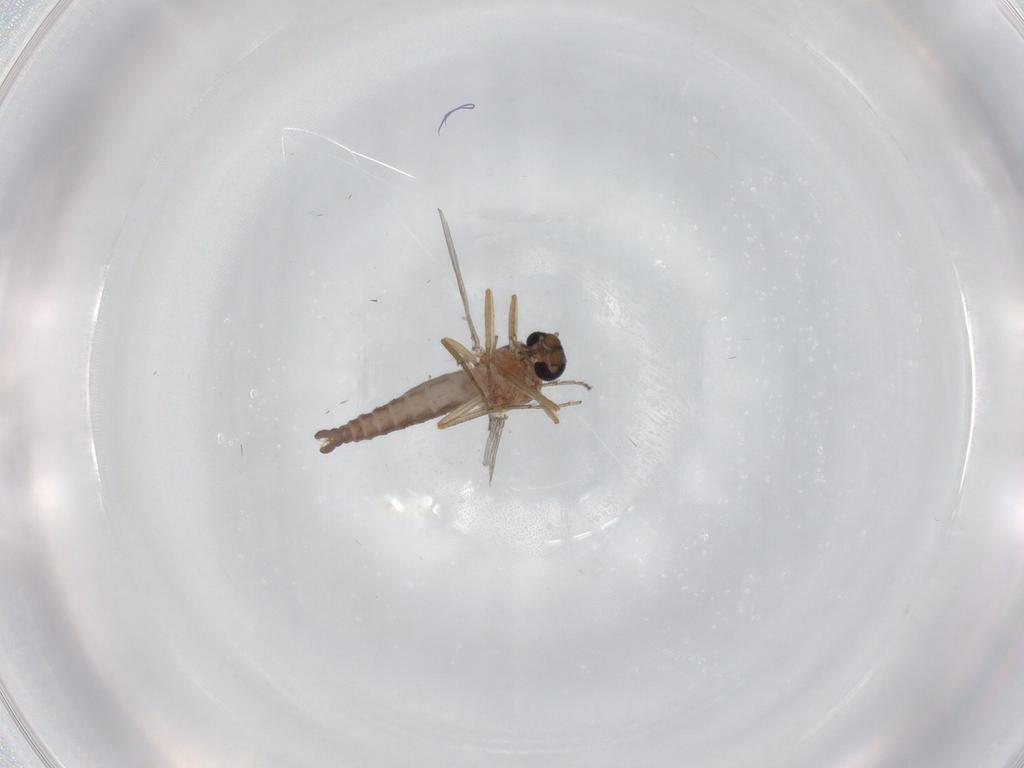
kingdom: Animalia
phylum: Arthropoda
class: Insecta
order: Diptera
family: Ceratopogonidae
